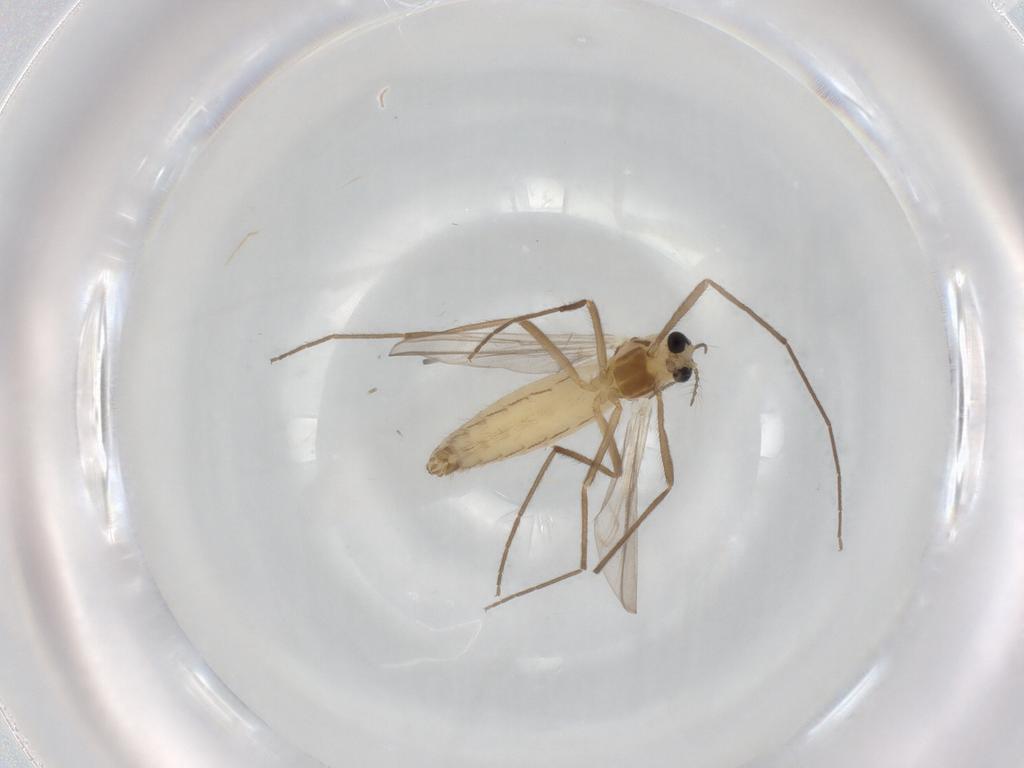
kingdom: Animalia
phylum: Arthropoda
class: Insecta
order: Diptera
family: Chironomidae
